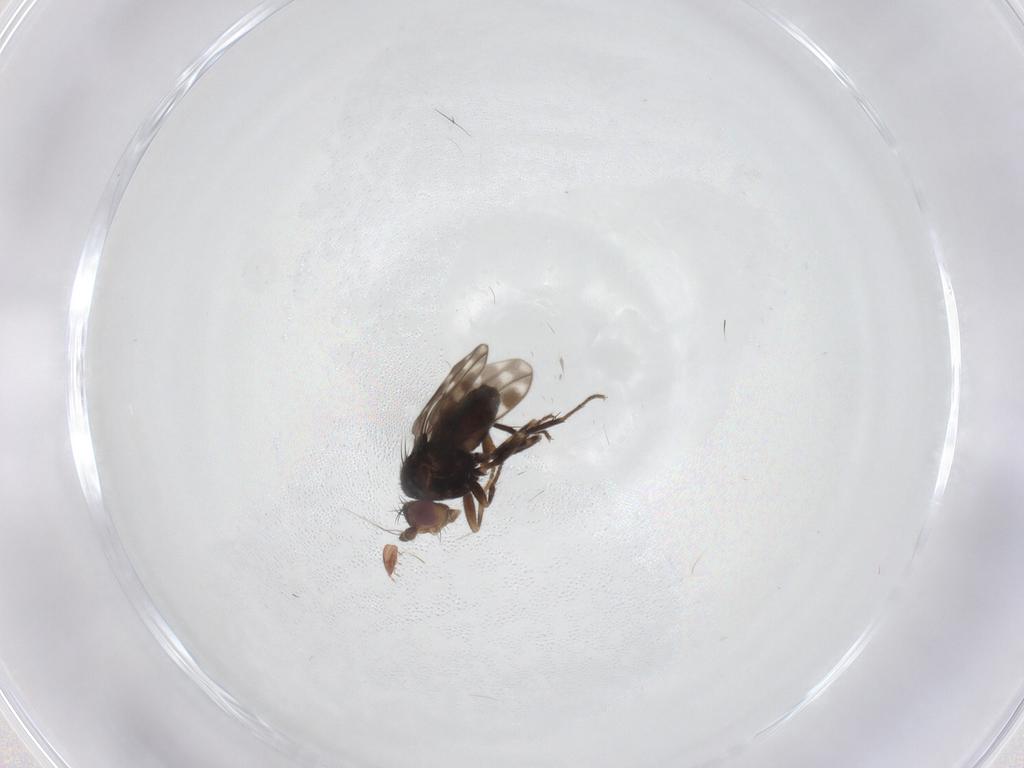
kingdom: Animalia
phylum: Arthropoda
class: Insecta
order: Diptera
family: Sphaeroceridae
